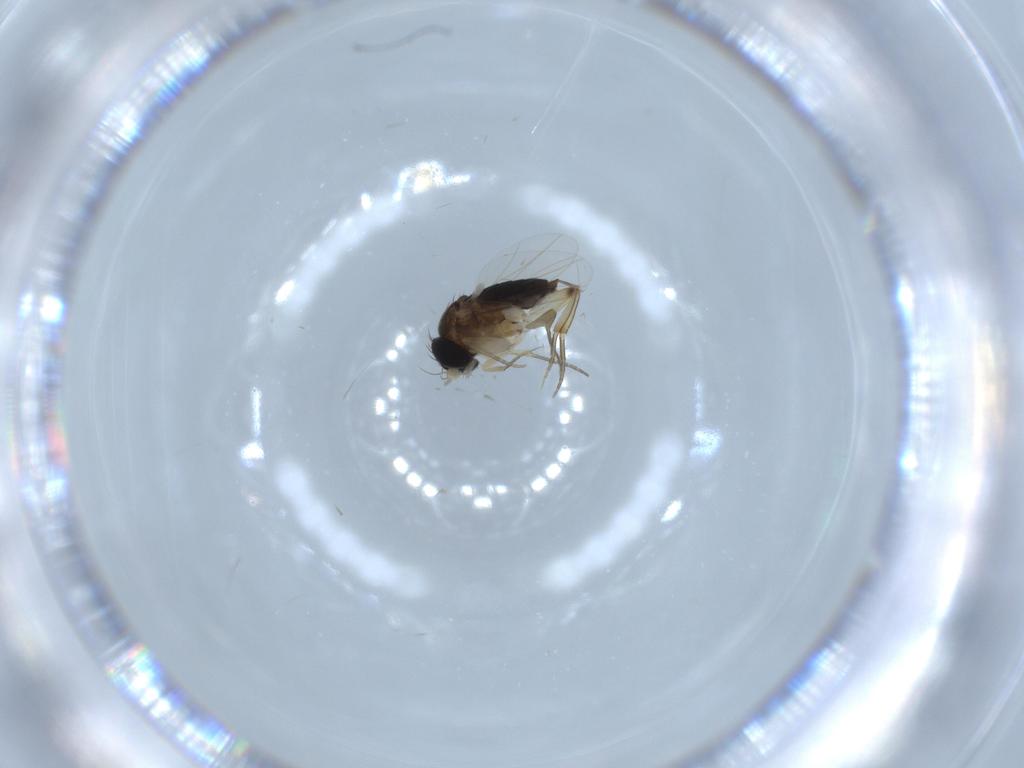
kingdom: Animalia
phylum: Arthropoda
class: Insecta
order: Diptera
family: Phoridae
